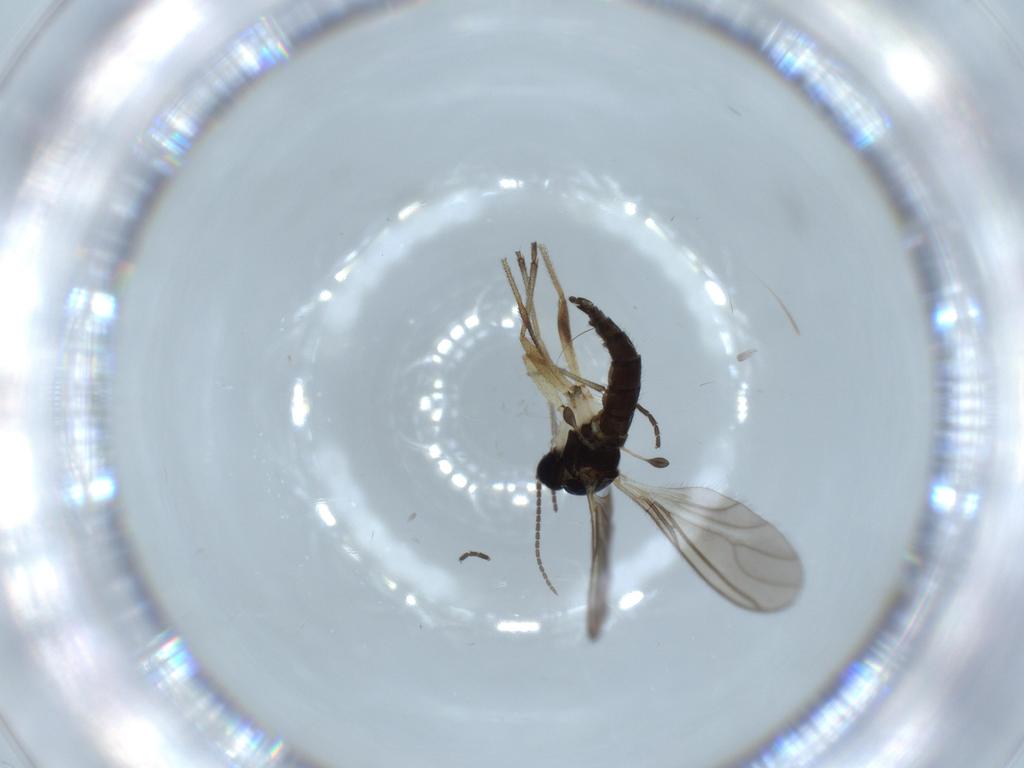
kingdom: Animalia
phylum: Arthropoda
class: Insecta
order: Diptera
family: Sciaridae
